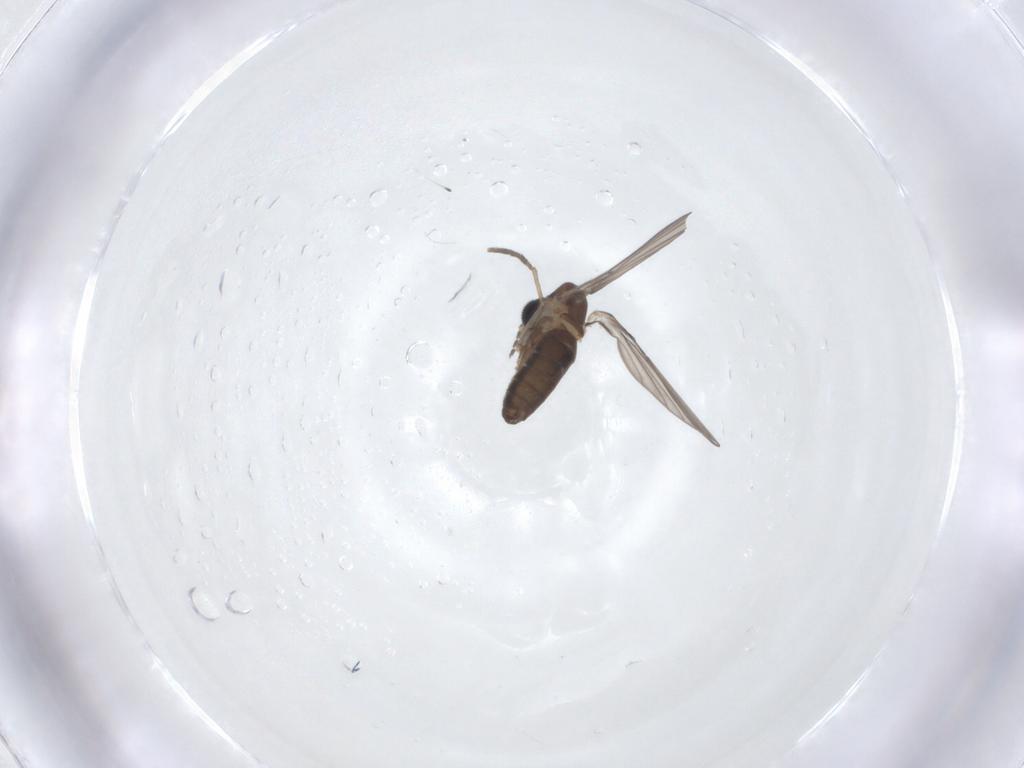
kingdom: Animalia
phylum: Arthropoda
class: Insecta
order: Diptera
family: Psychodidae
